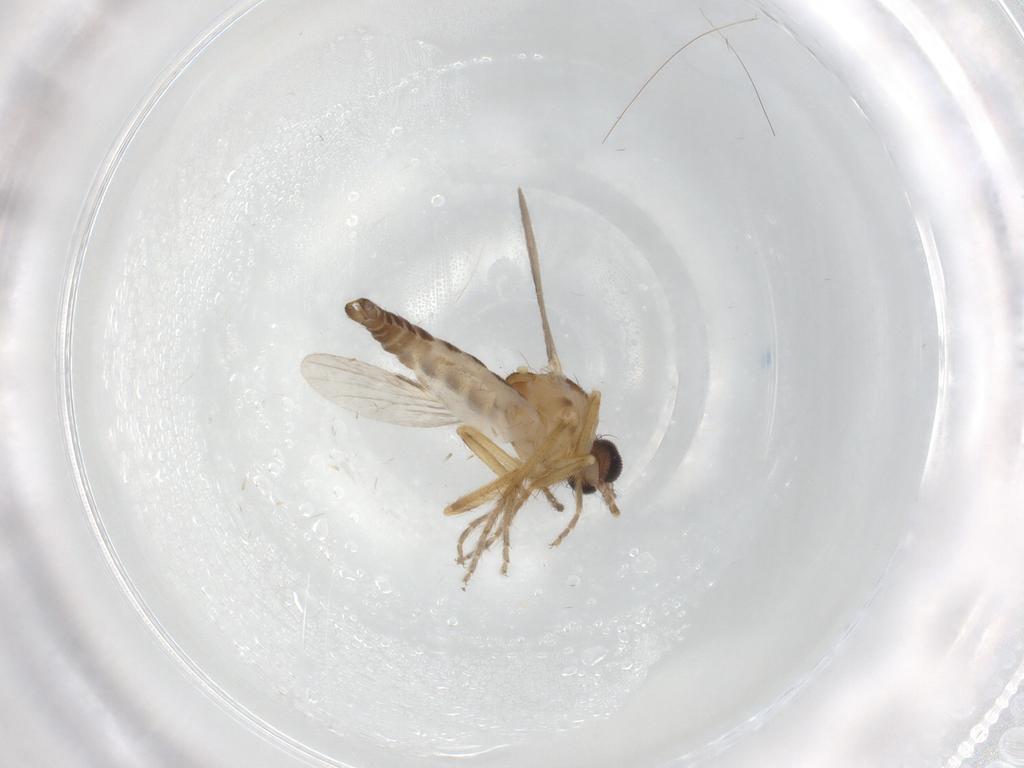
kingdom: Animalia
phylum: Arthropoda
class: Insecta
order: Diptera
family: Ceratopogonidae
